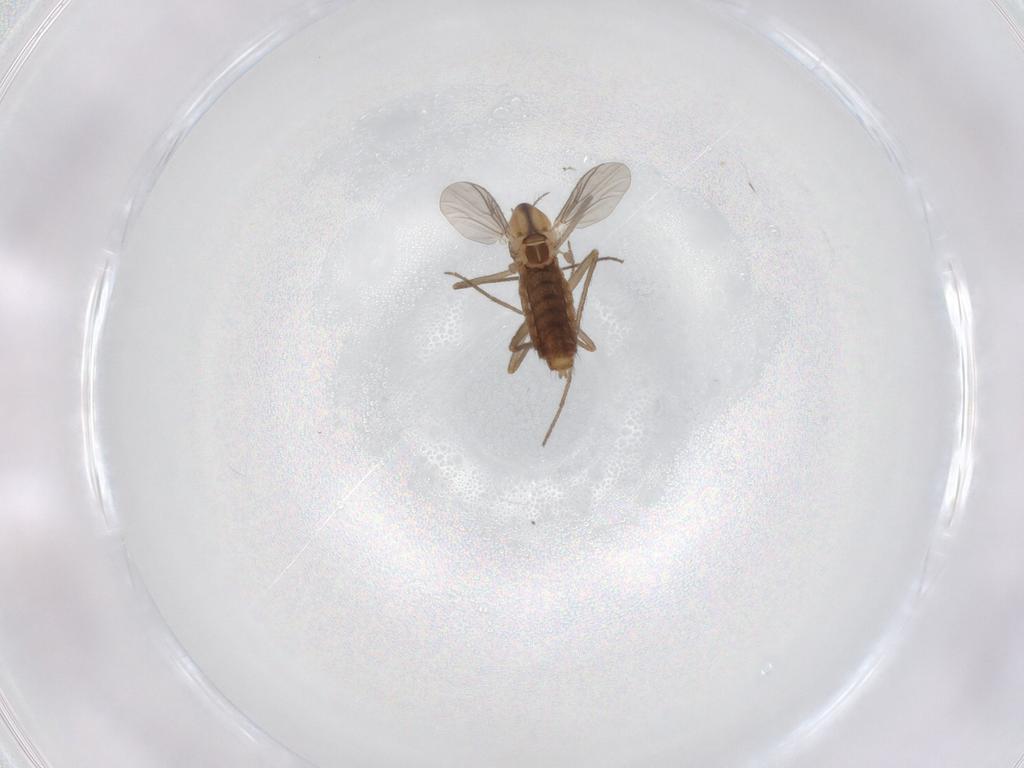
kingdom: Animalia
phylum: Arthropoda
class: Insecta
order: Diptera
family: Chironomidae
